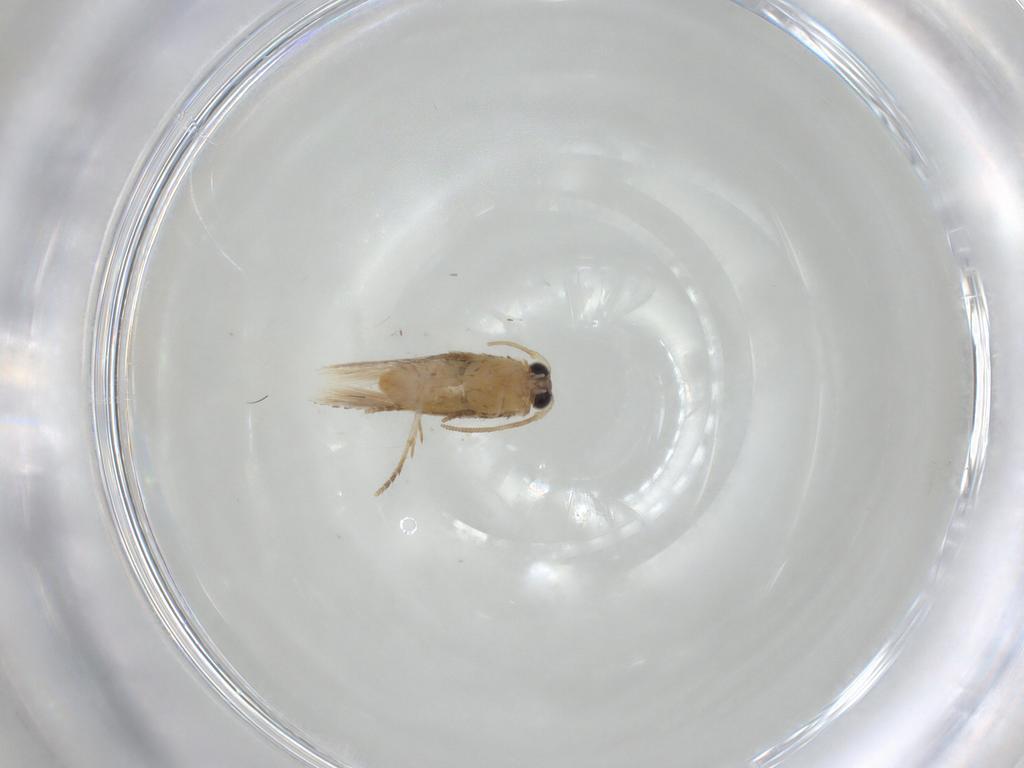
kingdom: Animalia
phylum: Arthropoda
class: Insecta
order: Lepidoptera
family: Nepticulidae
